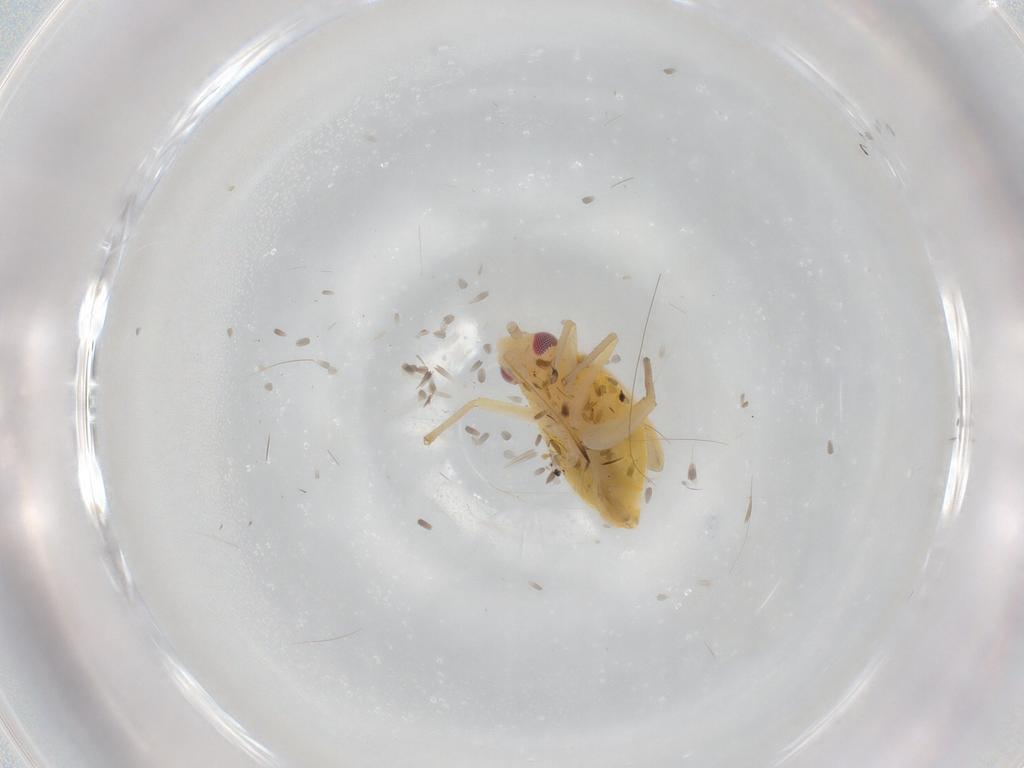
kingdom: Animalia
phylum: Arthropoda
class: Insecta
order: Hemiptera
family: Miridae
